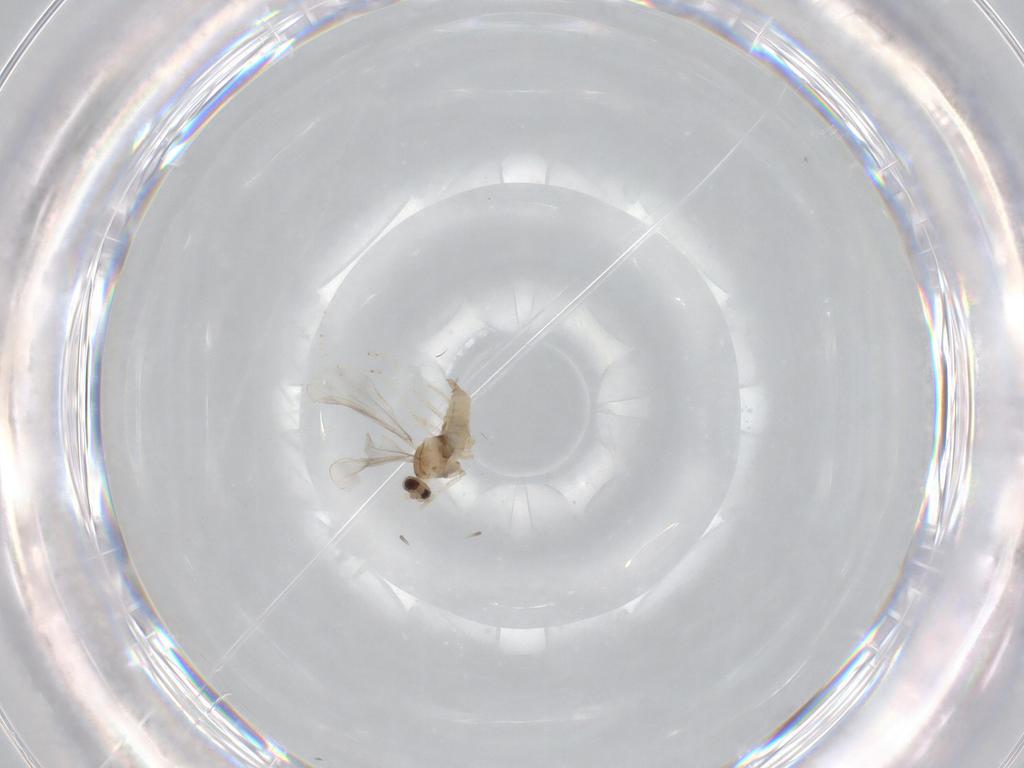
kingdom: Animalia
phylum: Arthropoda
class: Insecta
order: Diptera
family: Cecidomyiidae
